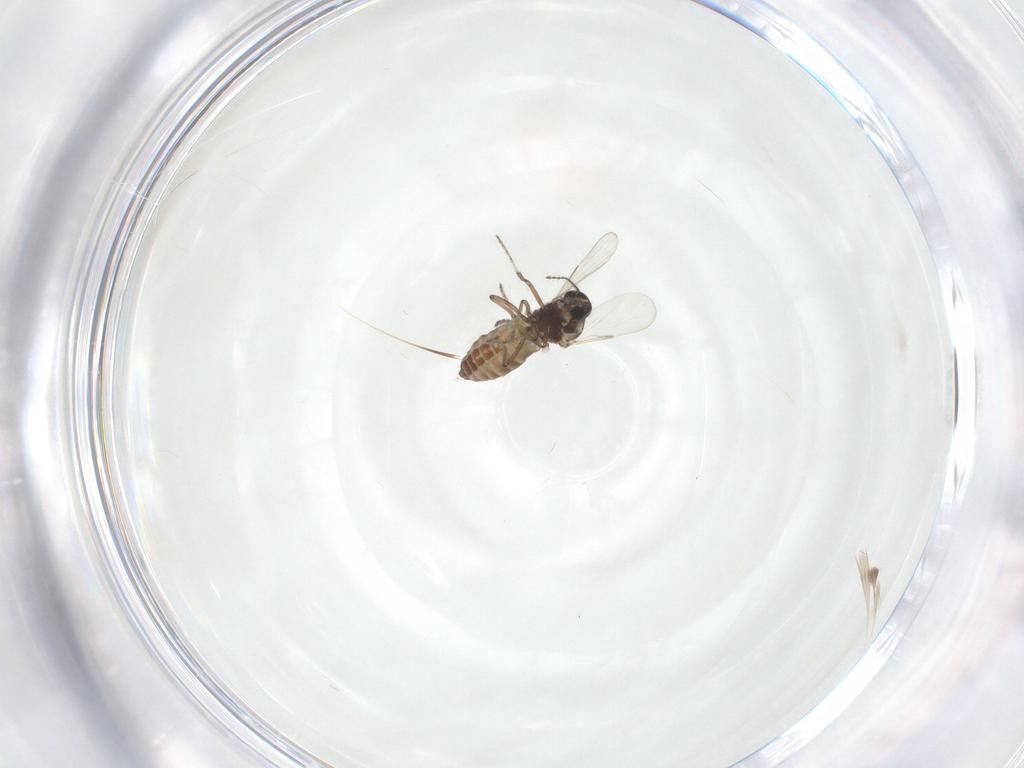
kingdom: Animalia
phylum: Arthropoda
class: Insecta
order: Diptera
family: Ceratopogonidae
